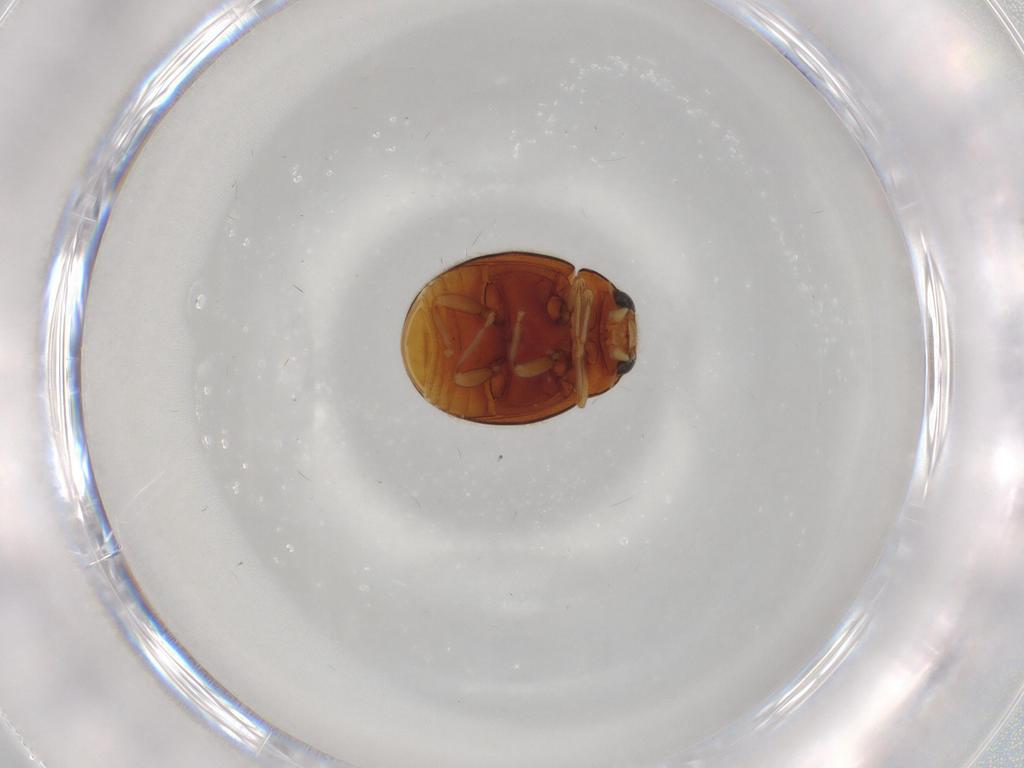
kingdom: Animalia
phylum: Arthropoda
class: Insecta
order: Coleoptera
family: Coccinellidae
